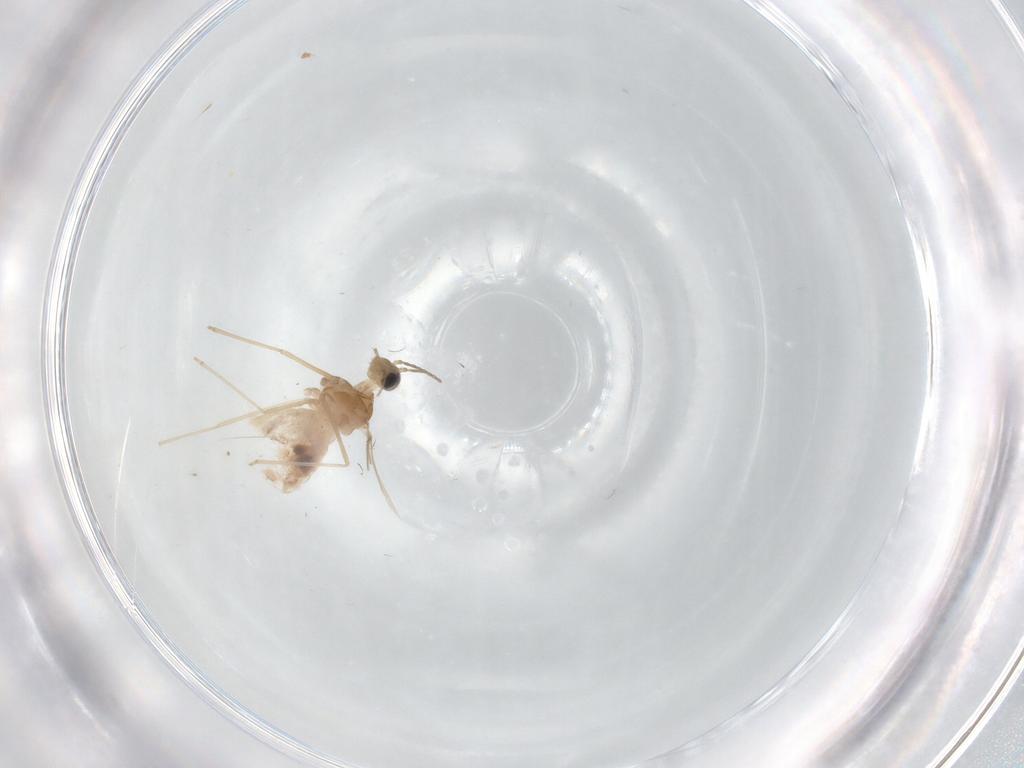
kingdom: Animalia
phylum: Arthropoda
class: Insecta
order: Diptera
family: Cecidomyiidae
